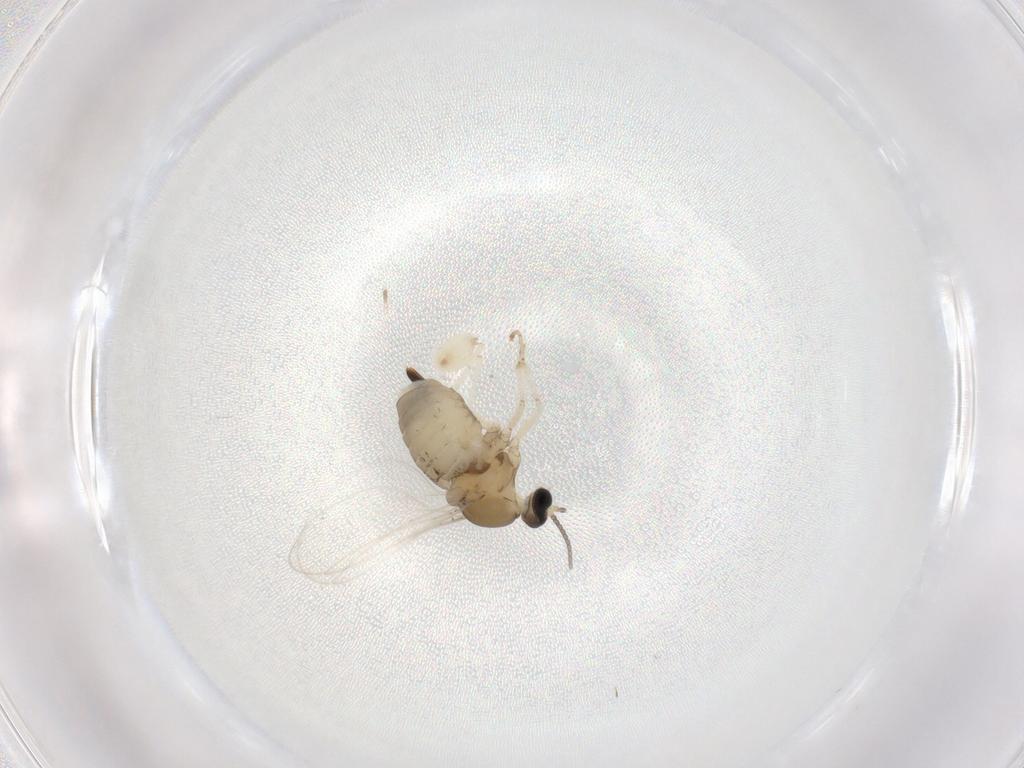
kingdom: Animalia
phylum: Arthropoda
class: Insecta
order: Diptera
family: Cecidomyiidae
